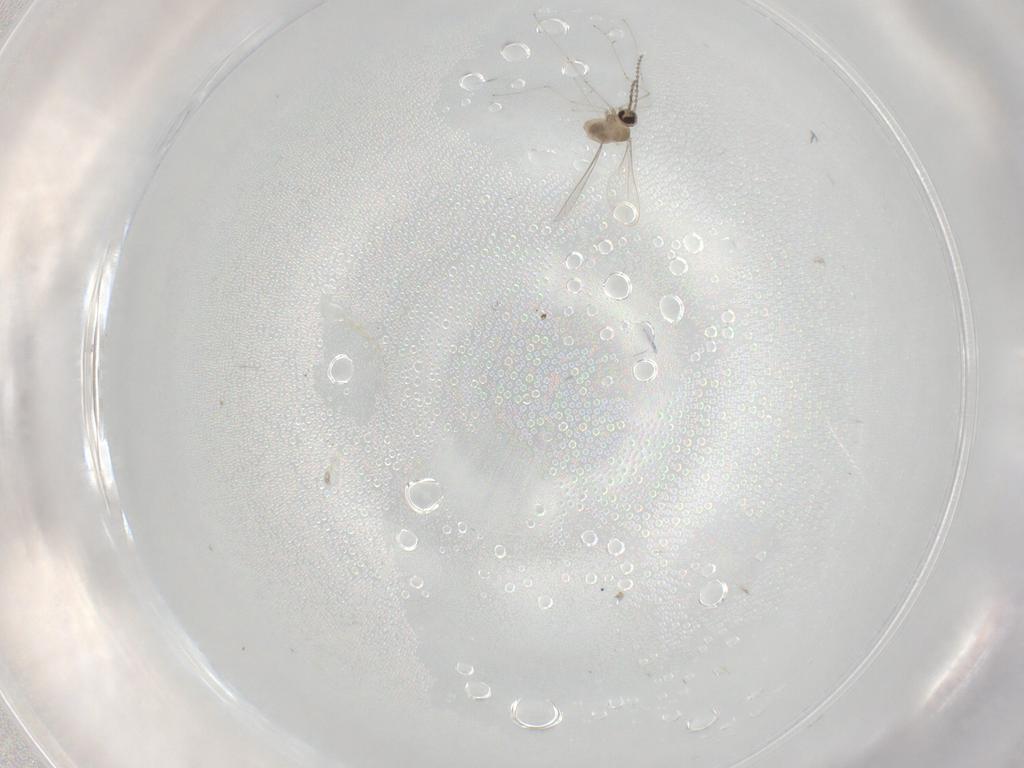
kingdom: Animalia
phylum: Arthropoda
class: Insecta
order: Diptera
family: Cecidomyiidae
